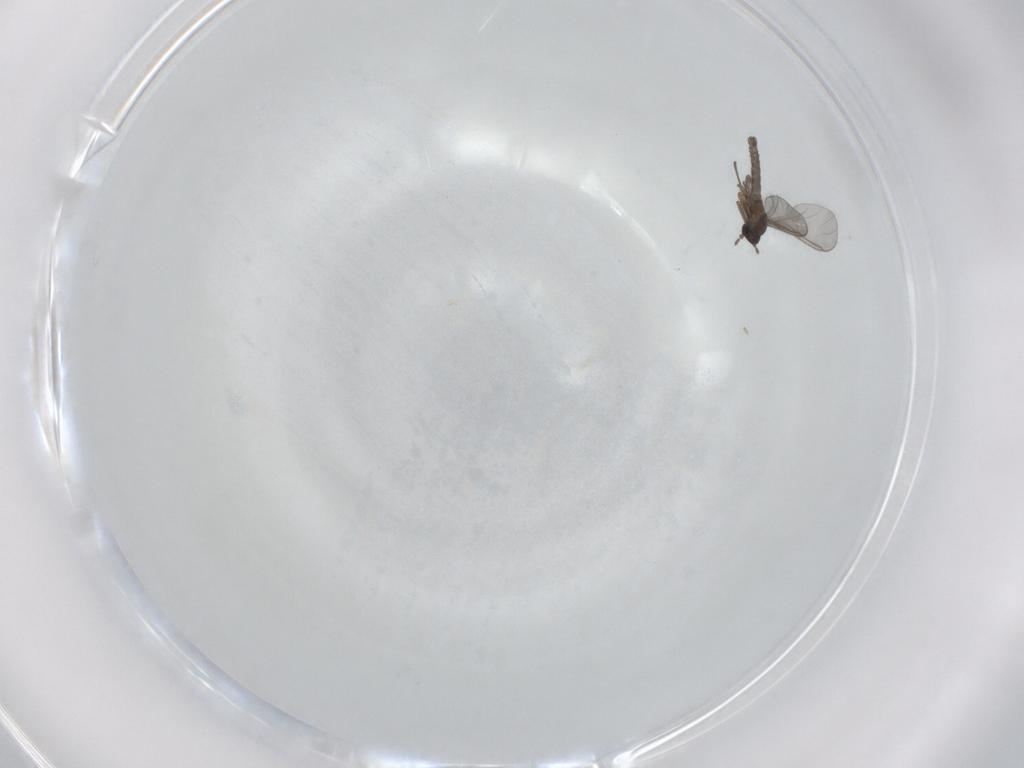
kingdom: Animalia
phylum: Arthropoda
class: Insecta
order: Diptera
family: Sciaridae
